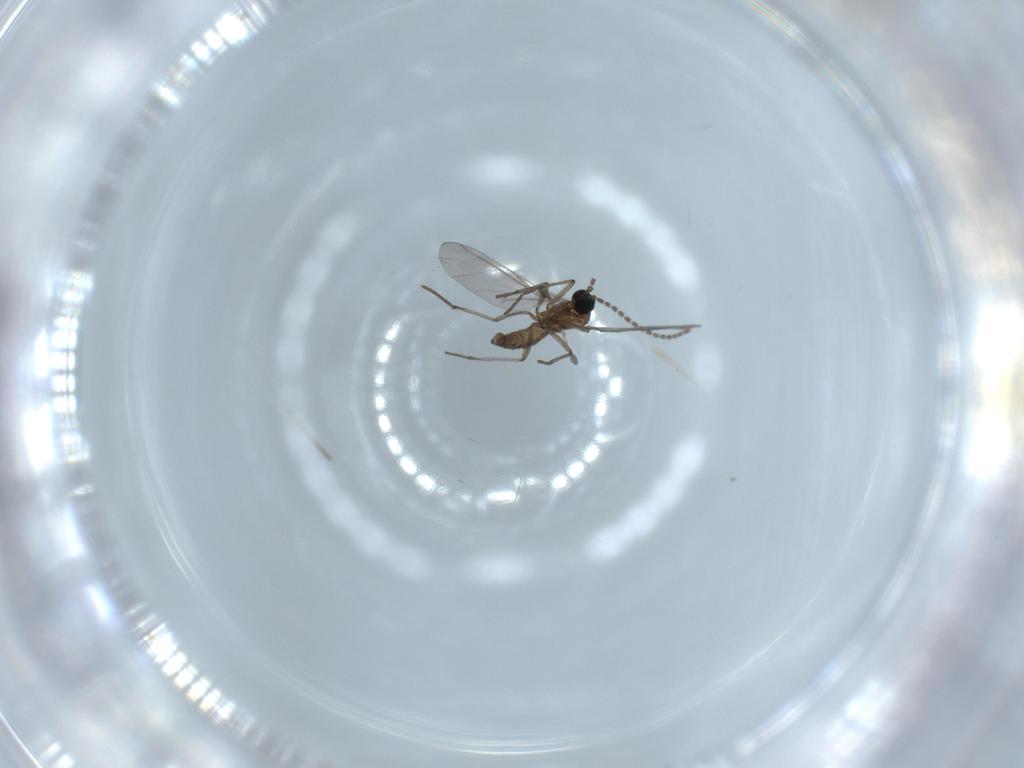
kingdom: Animalia
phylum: Arthropoda
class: Insecta
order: Diptera
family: Sciaridae
